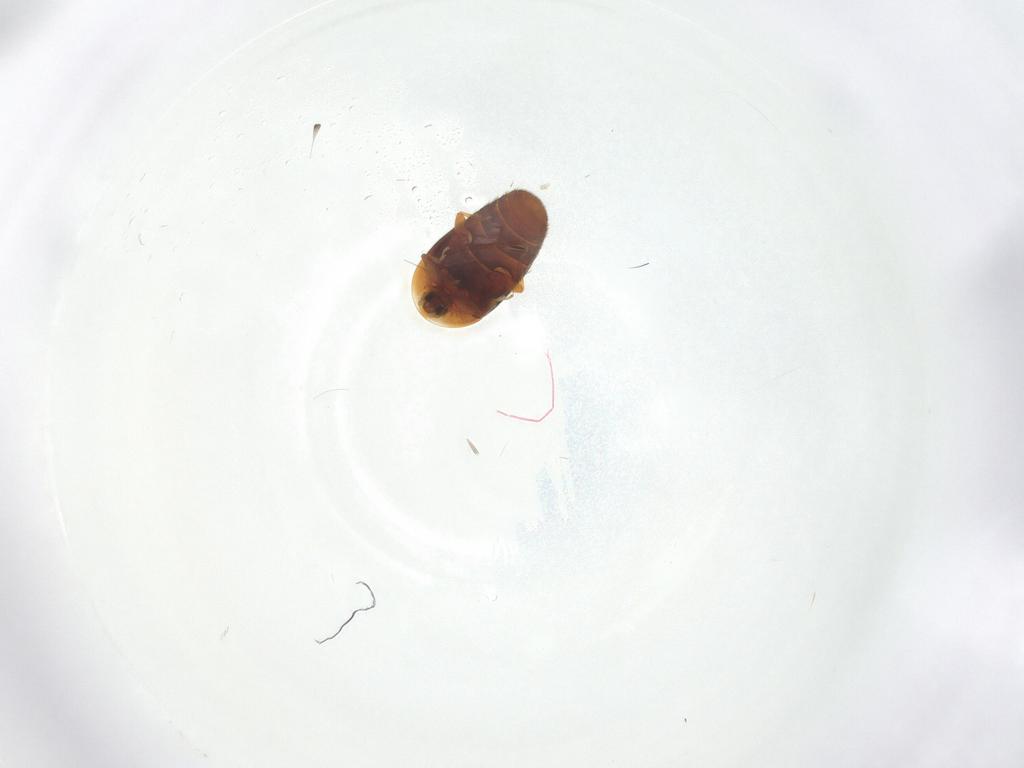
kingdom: Animalia
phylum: Arthropoda
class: Insecta
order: Coleoptera
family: Corylophidae
